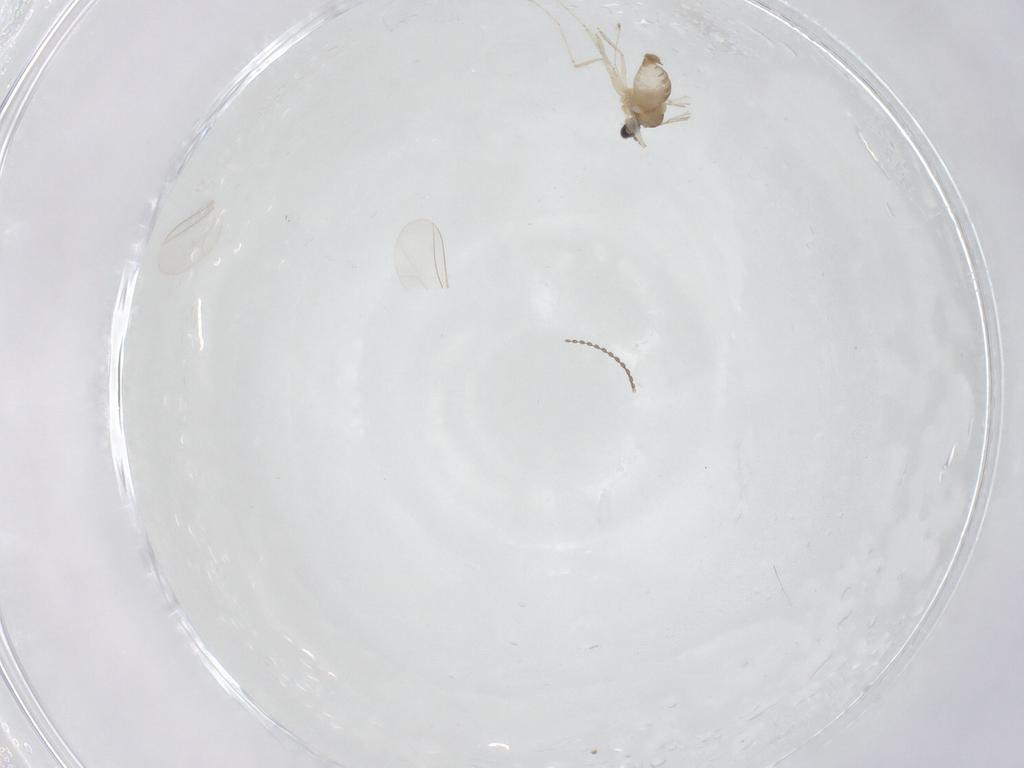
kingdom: Animalia
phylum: Arthropoda
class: Insecta
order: Diptera
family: Cecidomyiidae
